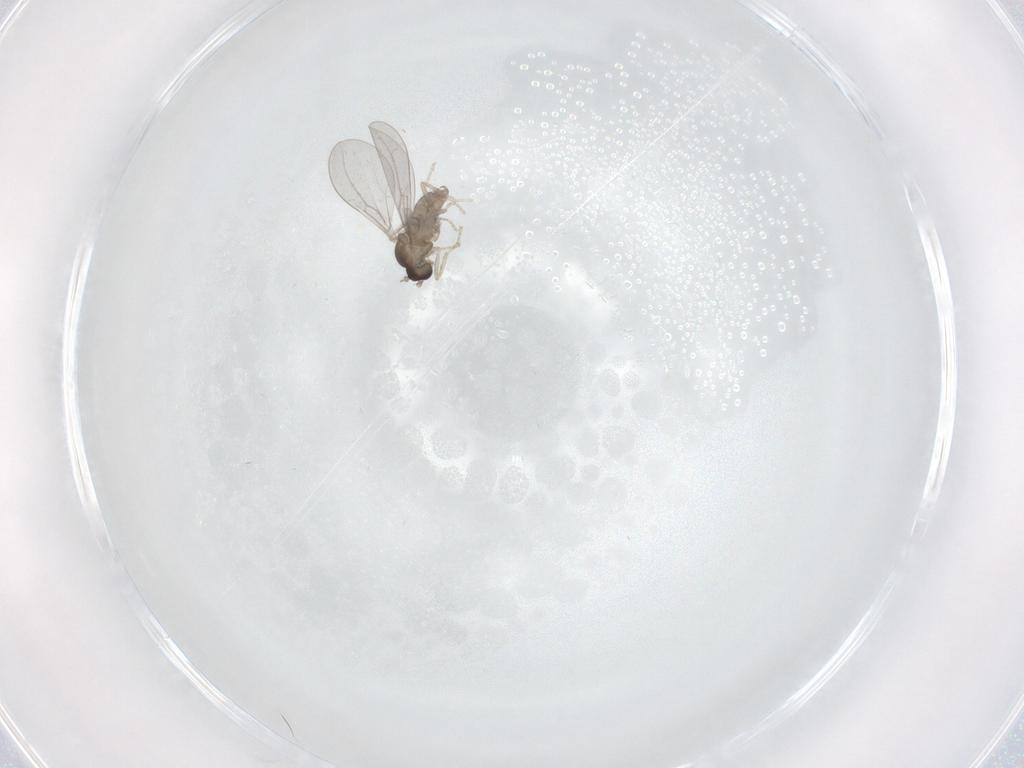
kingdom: Animalia
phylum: Arthropoda
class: Insecta
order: Diptera
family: Cecidomyiidae
